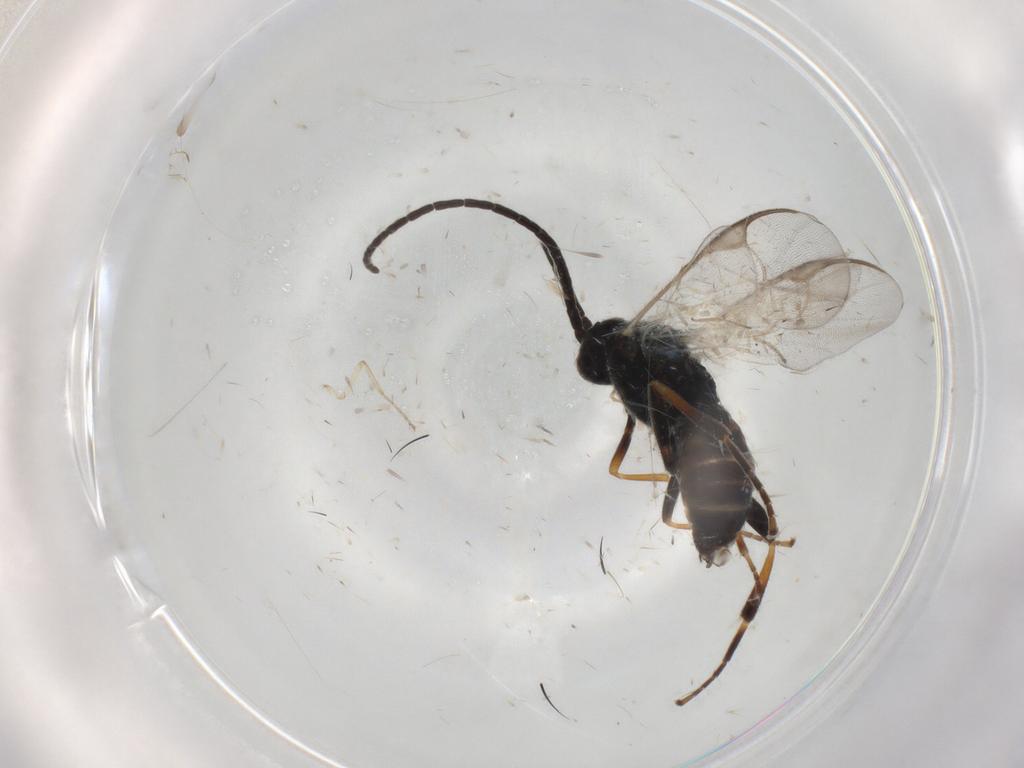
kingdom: Animalia
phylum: Arthropoda
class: Insecta
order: Hymenoptera
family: Braconidae
